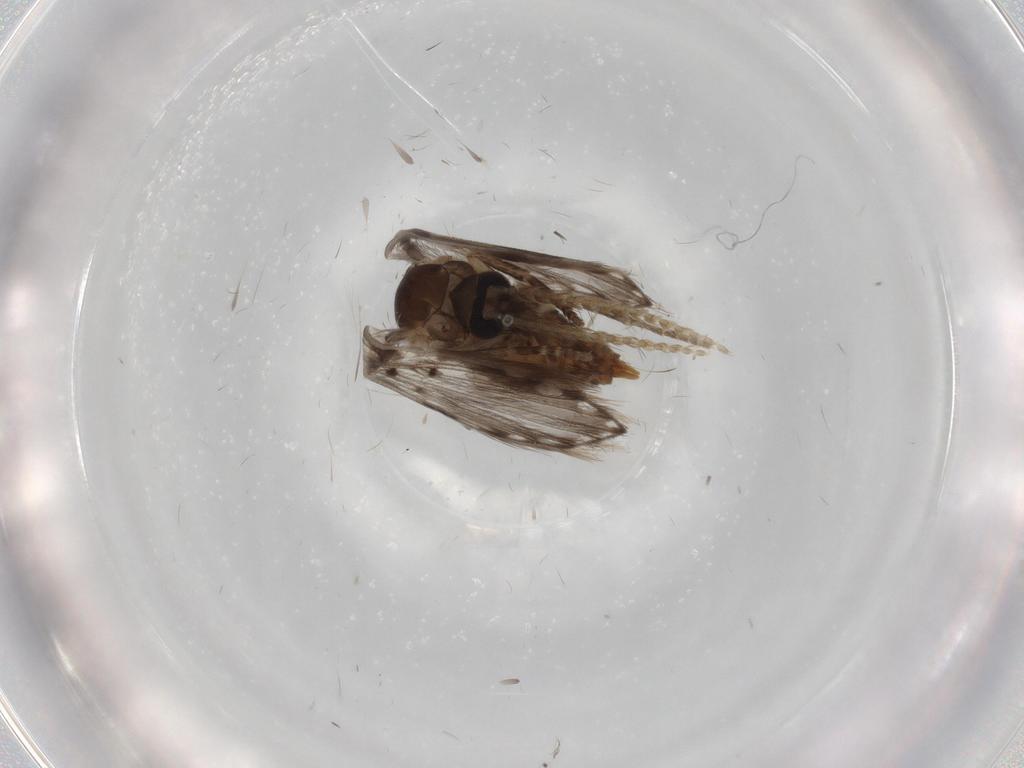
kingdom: Animalia
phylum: Arthropoda
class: Insecta
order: Diptera
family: Psychodidae
